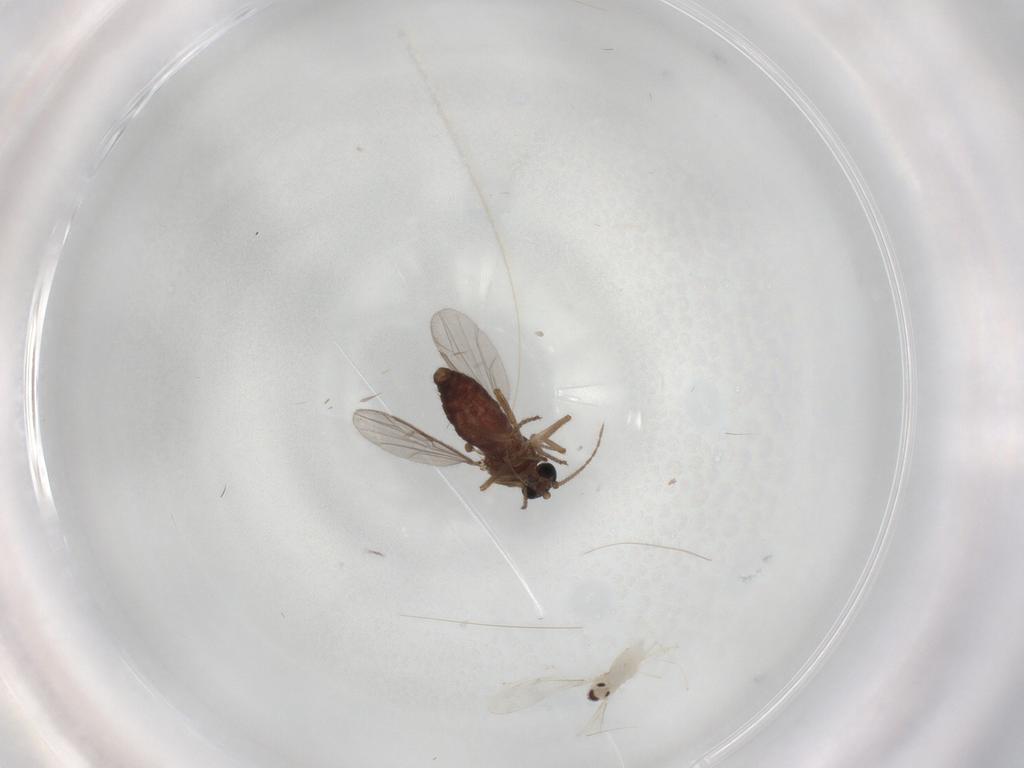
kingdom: Animalia
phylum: Arthropoda
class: Insecta
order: Diptera
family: Ceratopogonidae
